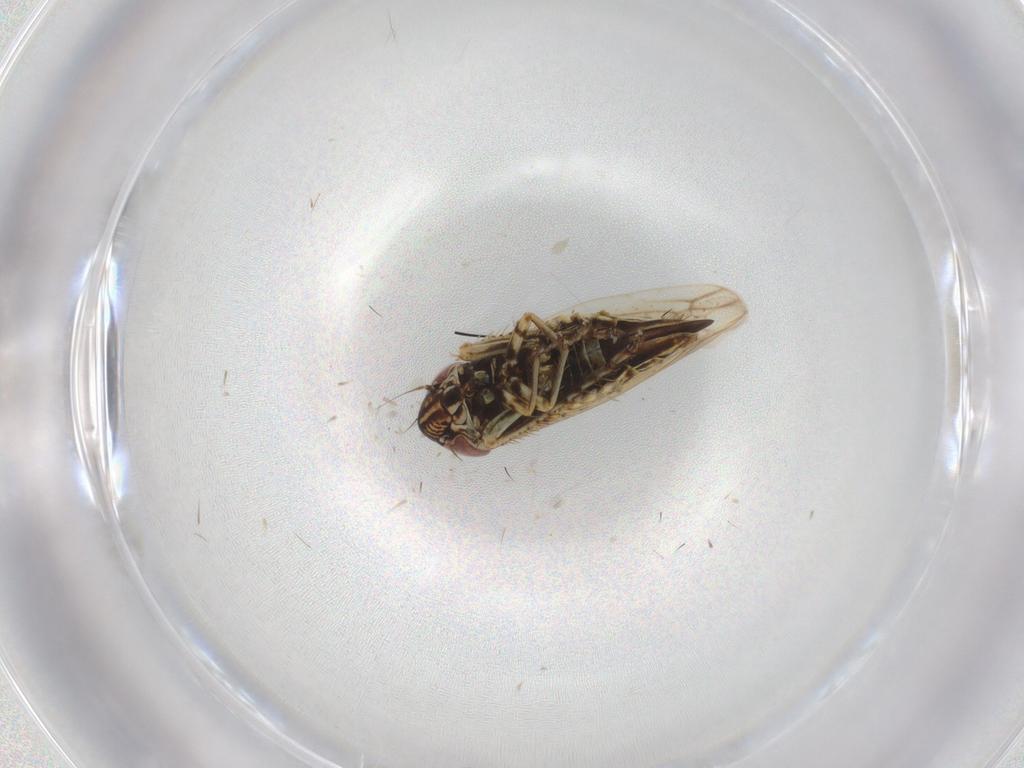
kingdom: Animalia
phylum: Arthropoda
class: Insecta
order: Hemiptera
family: Cicadellidae
